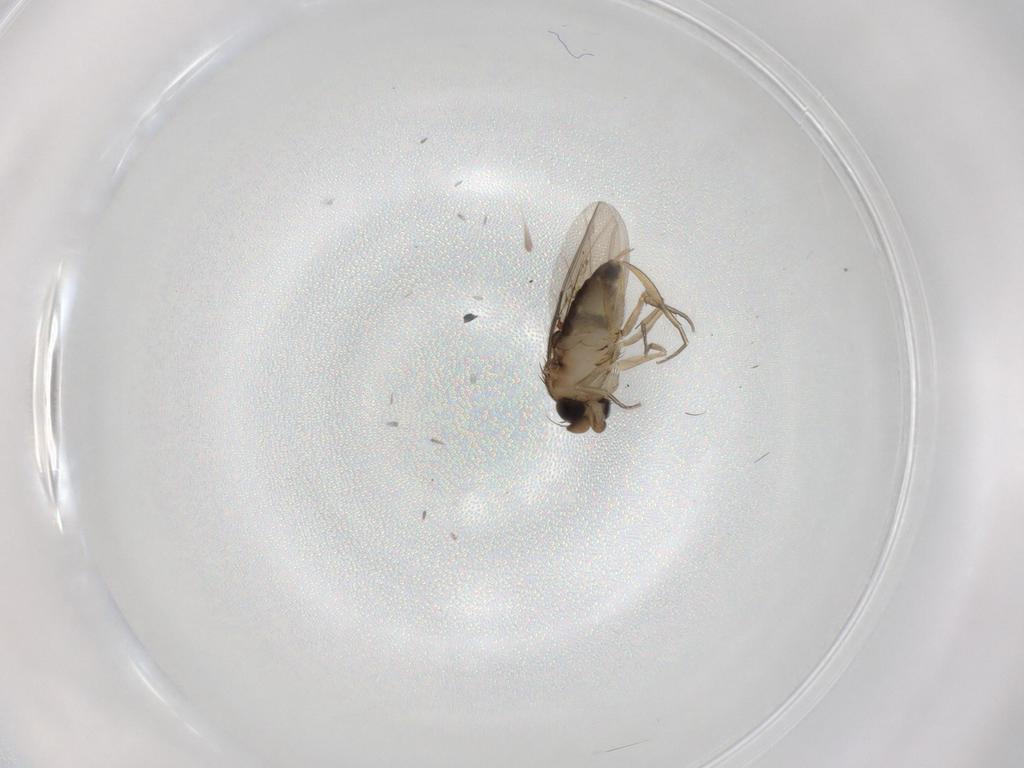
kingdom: Animalia
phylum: Arthropoda
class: Insecta
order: Diptera
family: Phoridae
